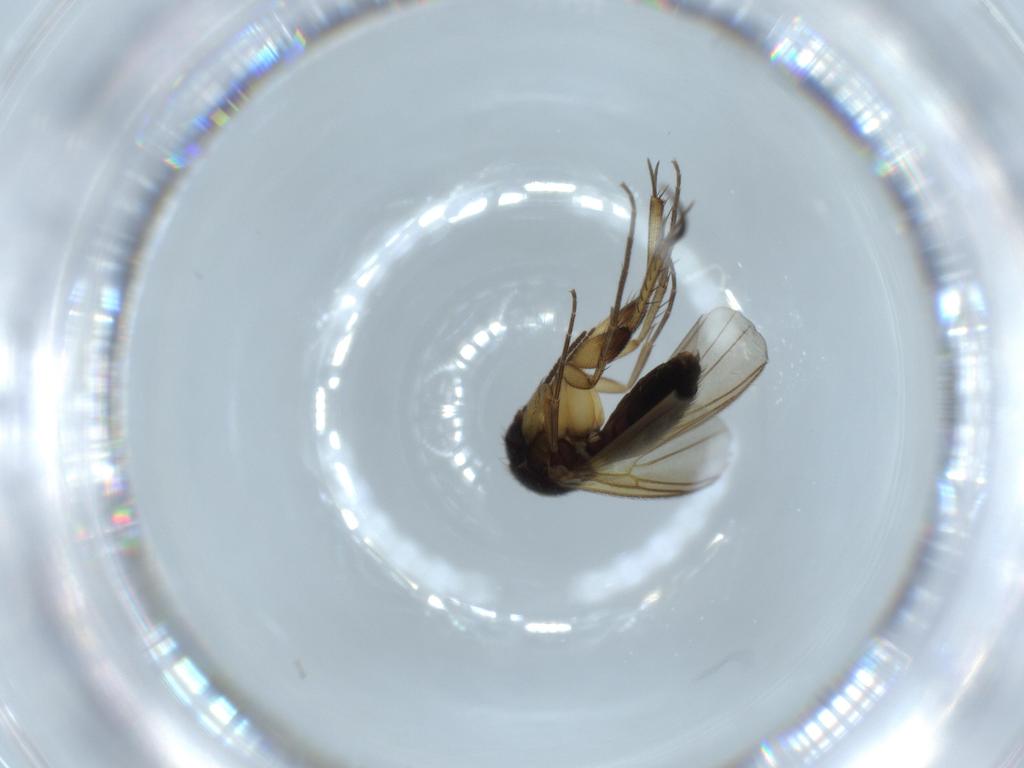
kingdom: Animalia
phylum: Arthropoda
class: Insecta
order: Diptera
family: Mycetophilidae
